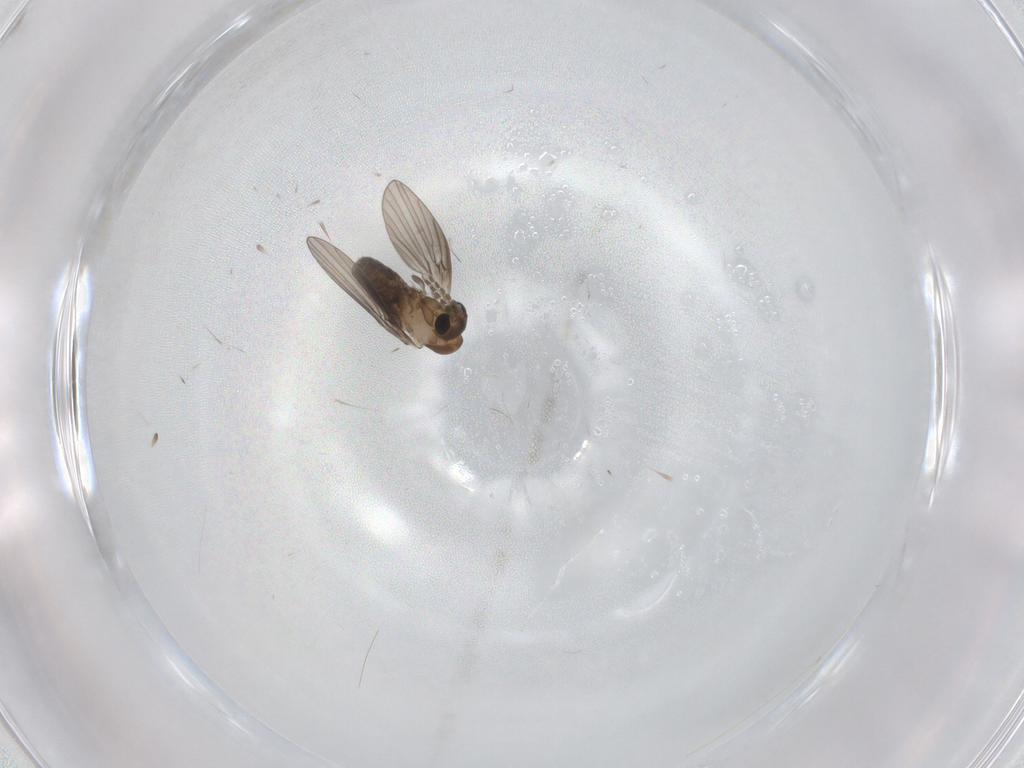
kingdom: Animalia
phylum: Arthropoda
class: Insecta
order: Diptera
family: Psychodidae
